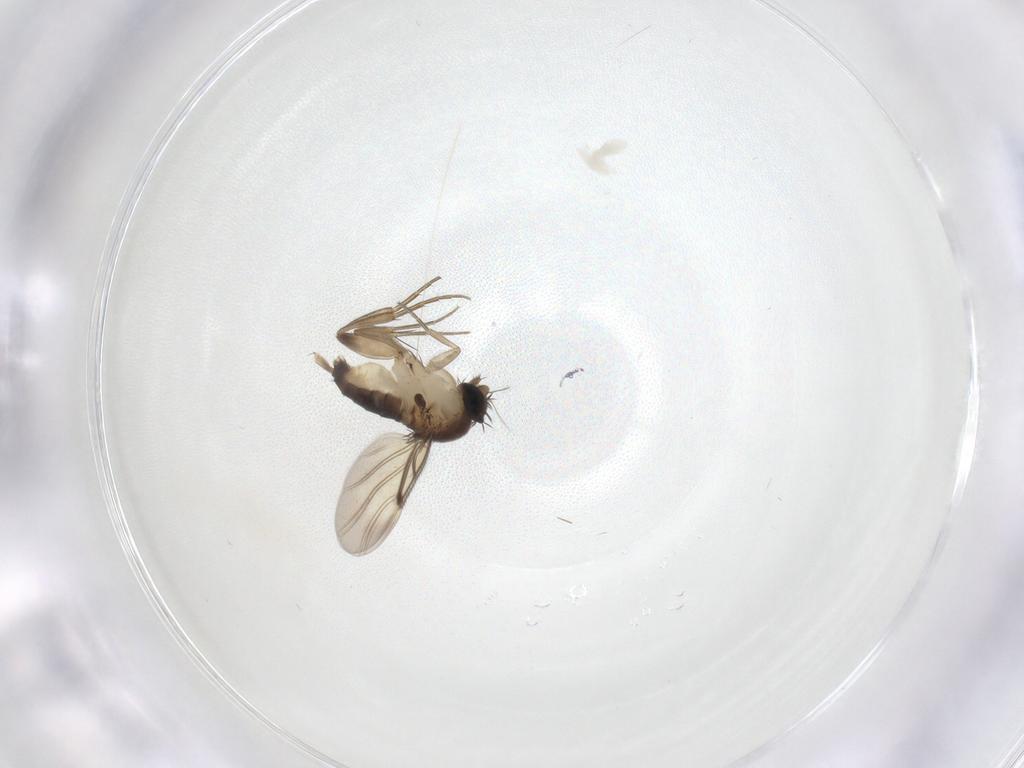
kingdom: Animalia
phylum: Arthropoda
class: Insecta
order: Diptera
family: Phoridae
